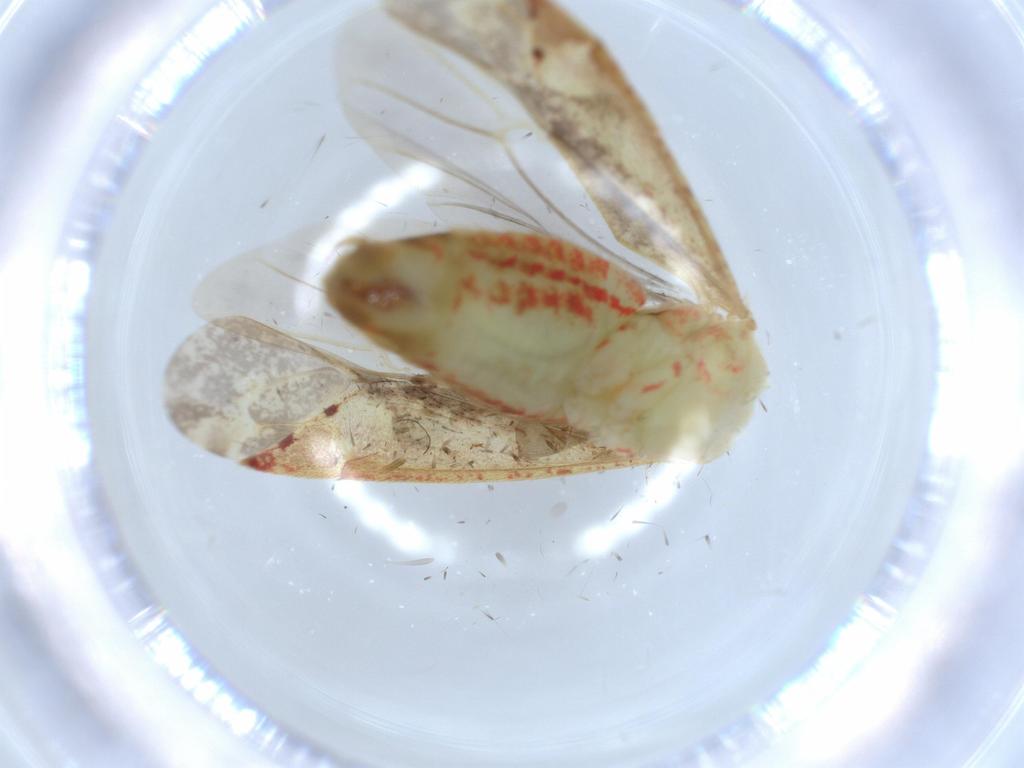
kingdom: Animalia
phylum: Arthropoda
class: Insecta
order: Hemiptera
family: Miridae
